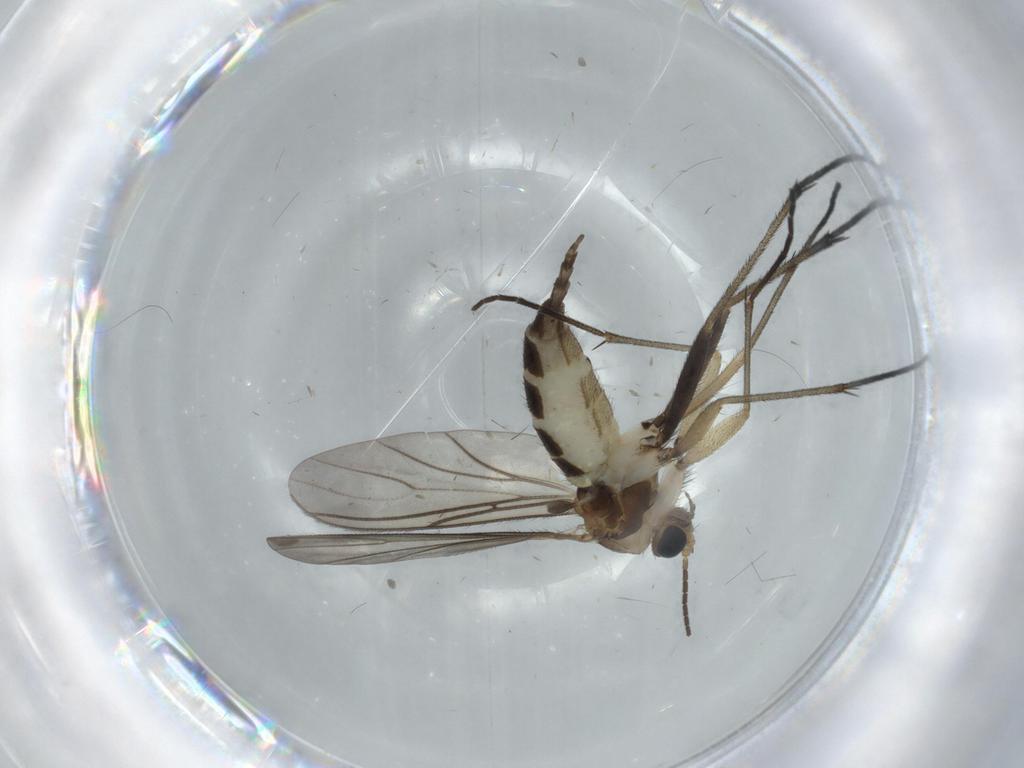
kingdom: Animalia
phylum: Arthropoda
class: Insecta
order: Diptera
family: Sciaridae
